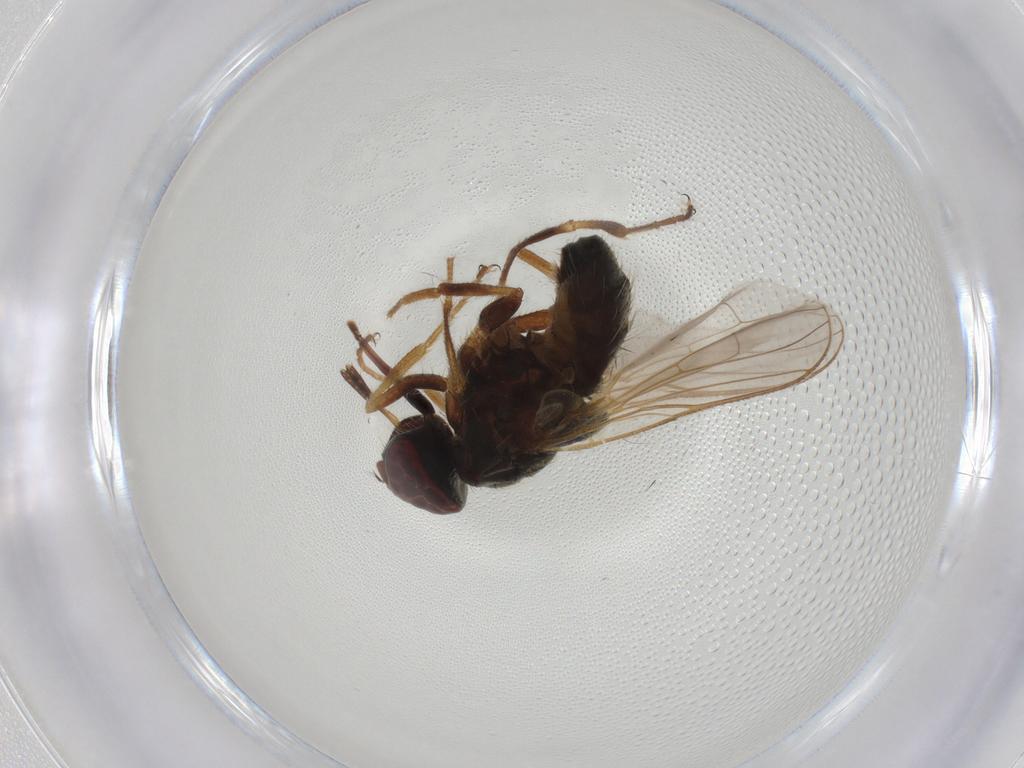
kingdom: Animalia
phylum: Arthropoda
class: Insecta
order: Diptera
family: Muscidae
